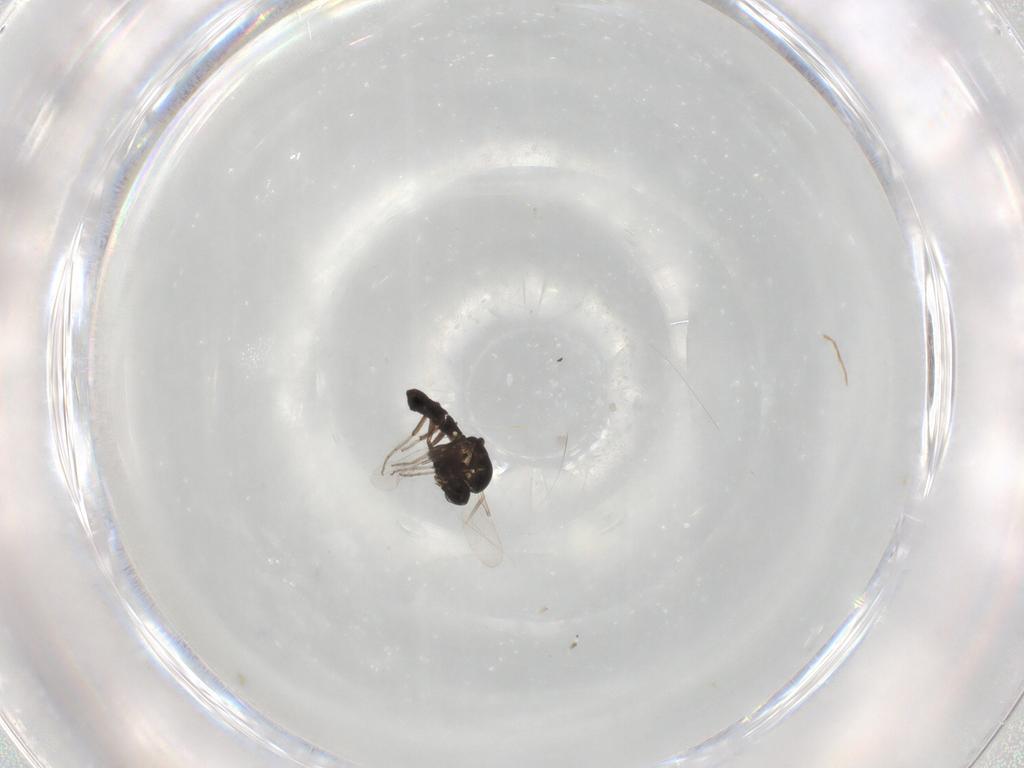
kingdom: Animalia
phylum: Arthropoda
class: Insecta
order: Diptera
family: Ceratopogonidae
